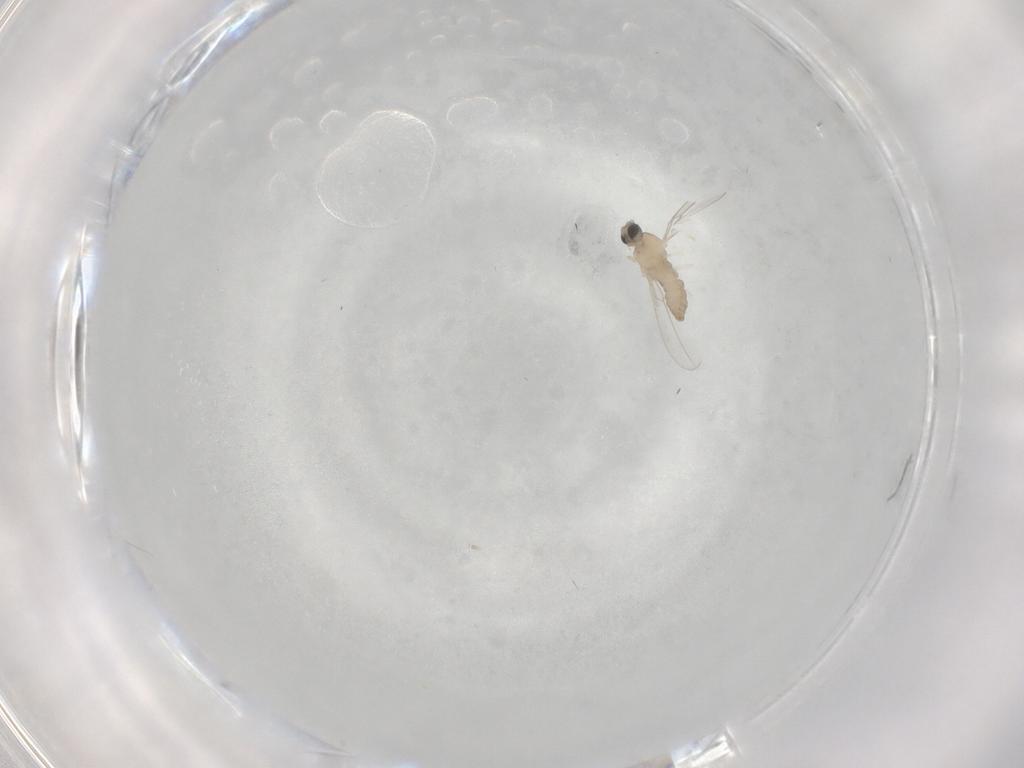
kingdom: Animalia
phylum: Arthropoda
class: Insecta
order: Diptera
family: Cecidomyiidae
